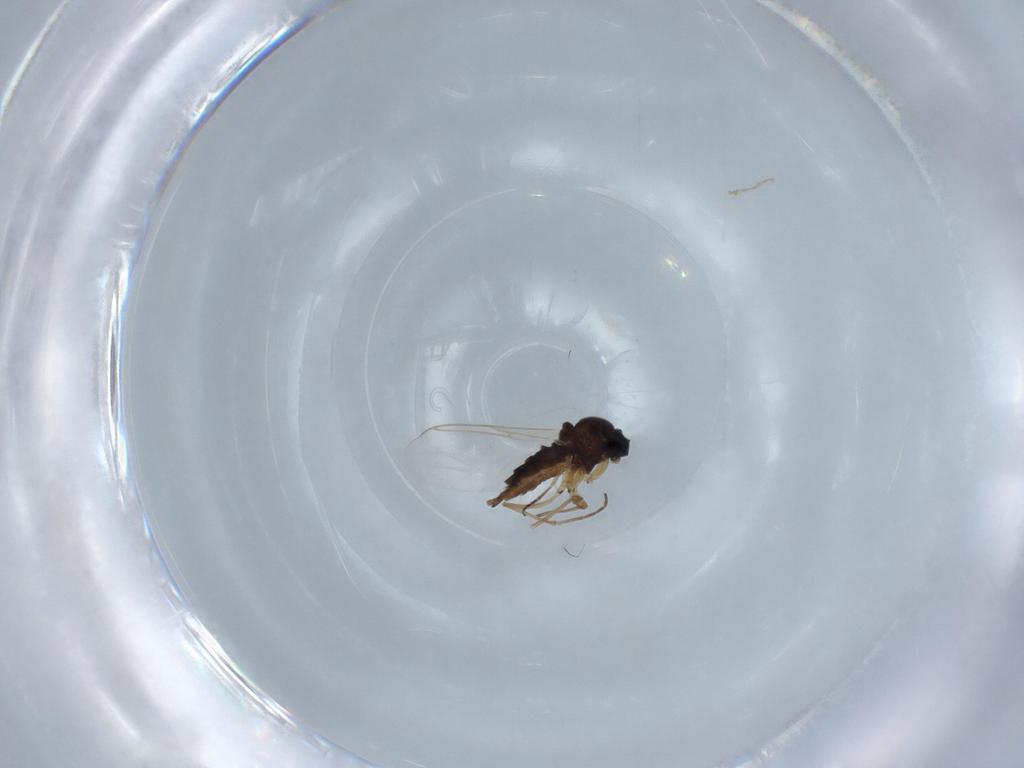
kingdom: Animalia
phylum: Arthropoda
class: Insecta
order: Diptera
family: Sciaridae
